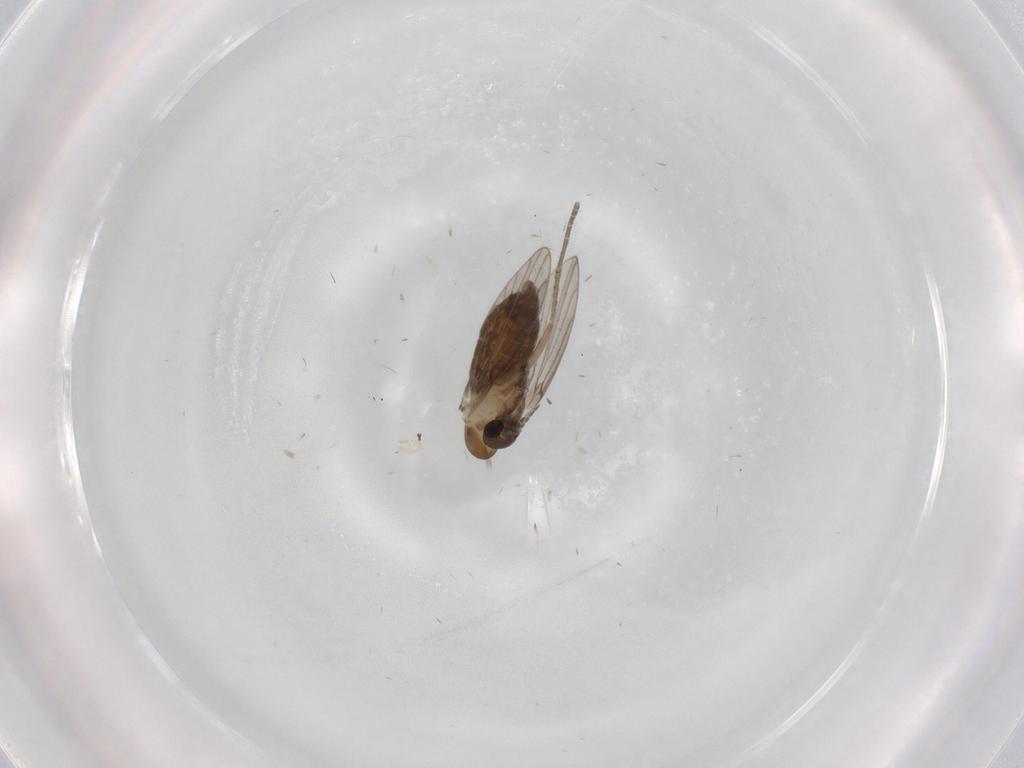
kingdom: Animalia
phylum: Arthropoda
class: Insecta
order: Diptera
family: Psychodidae
